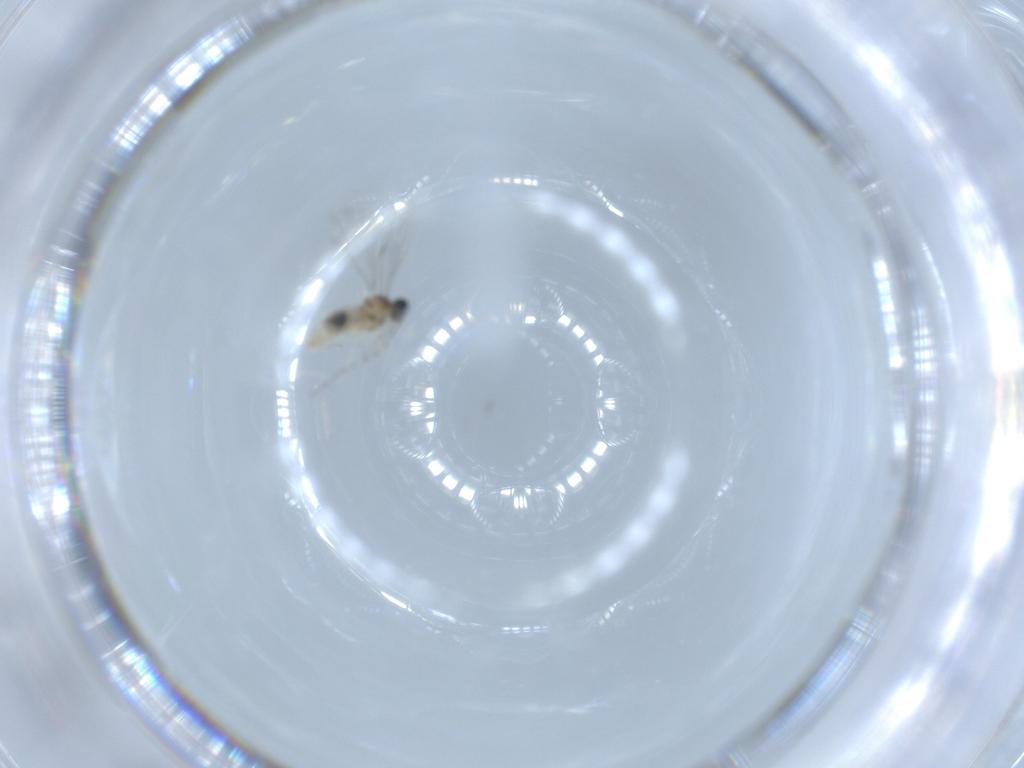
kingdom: Animalia
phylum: Arthropoda
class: Insecta
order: Diptera
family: Cecidomyiidae
